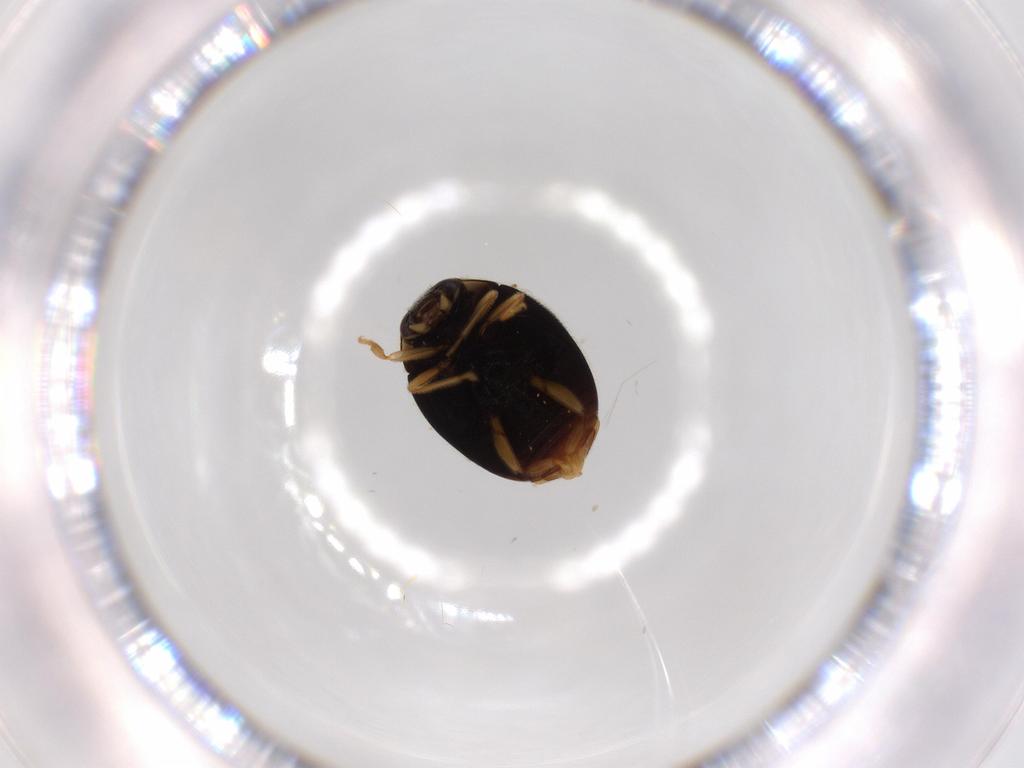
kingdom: Animalia
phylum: Arthropoda
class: Insecta
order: Coleoptera
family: Coccinellidae
